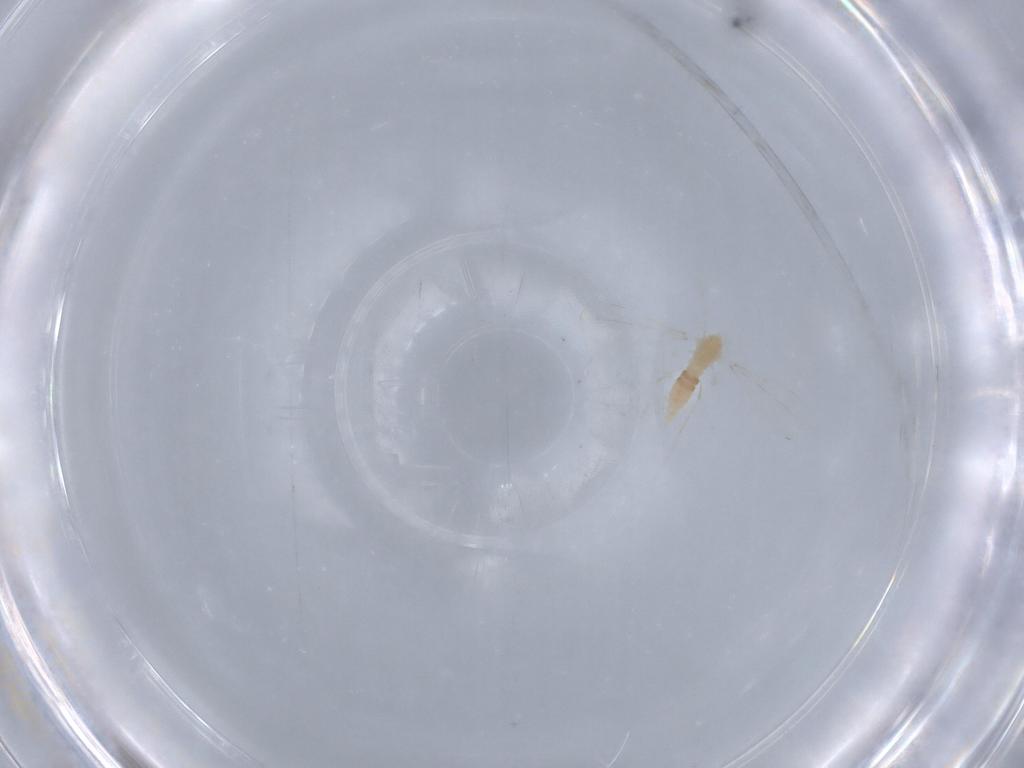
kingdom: Animalia
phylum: Arthropoda
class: Insecta
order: Diptera
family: Cecidomyiidae
